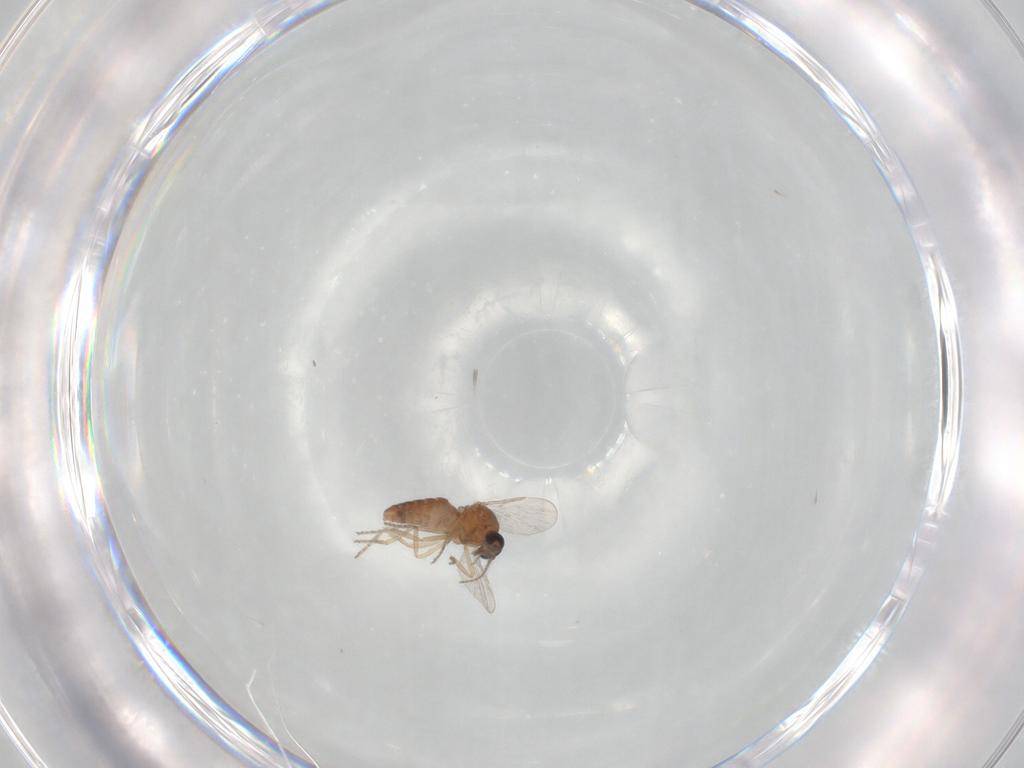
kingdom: Animalia
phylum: Arthropoda
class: Insecta
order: Diptera
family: Ceratopogonidae
